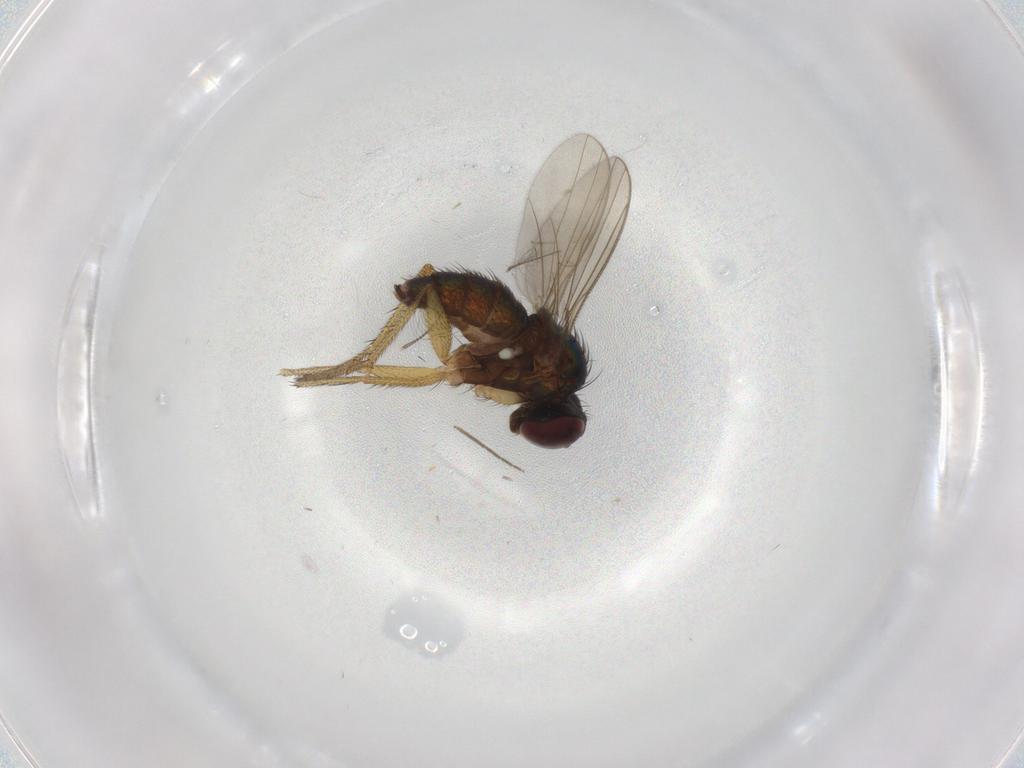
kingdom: Animalia
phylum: Arthropoda
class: Insecta
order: Diptera
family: Dolichopodidae
